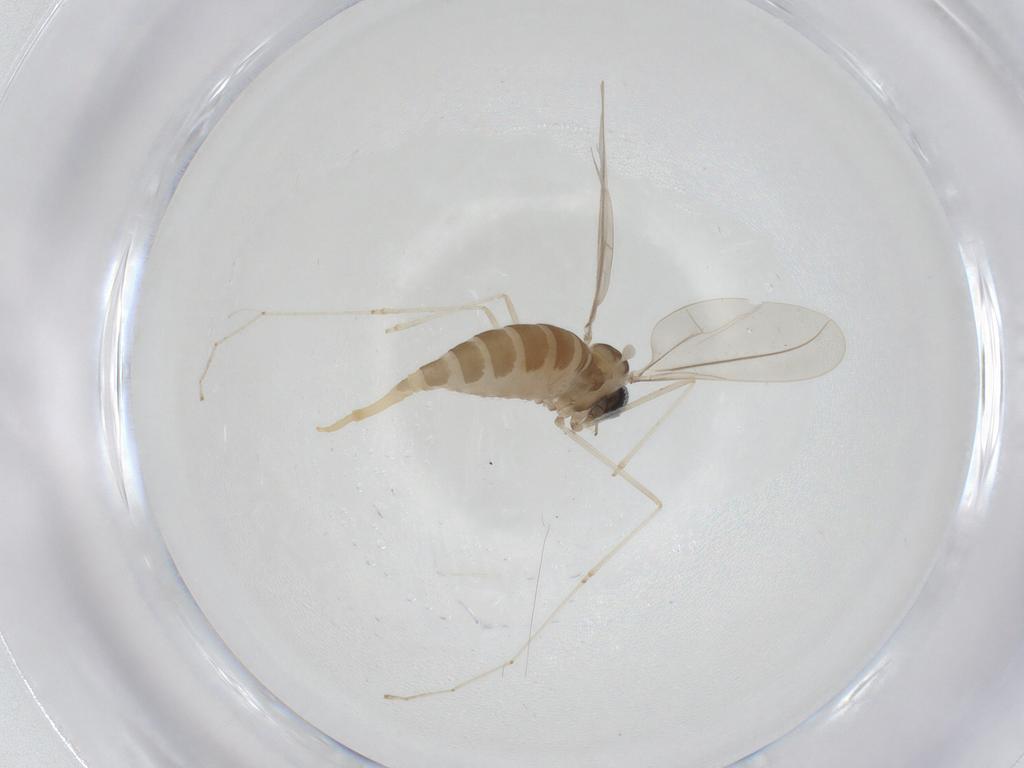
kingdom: Animalia
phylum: Arthropoda
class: Insecta
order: Diptera
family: Cecidomyiidae
